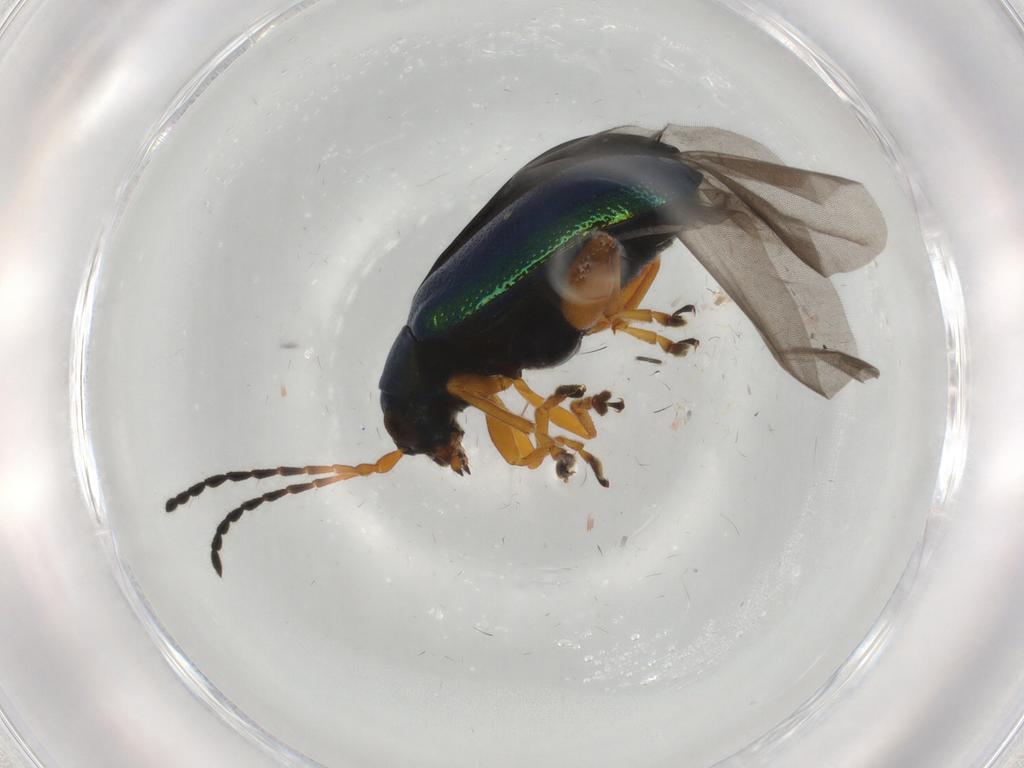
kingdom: Animalia
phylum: Arthropoda
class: Insecta
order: Coleoptera
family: Chrysomelidae
